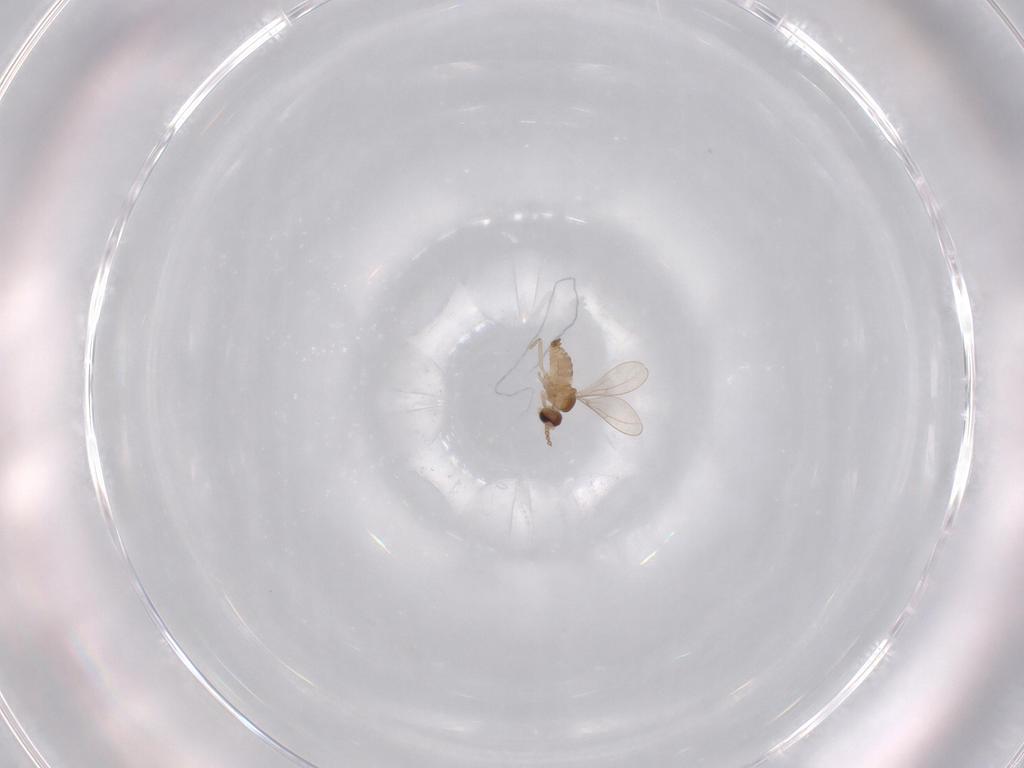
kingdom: Animalia
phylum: Arthropoda
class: Insecta
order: Diptera
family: Cecidomyiidae
